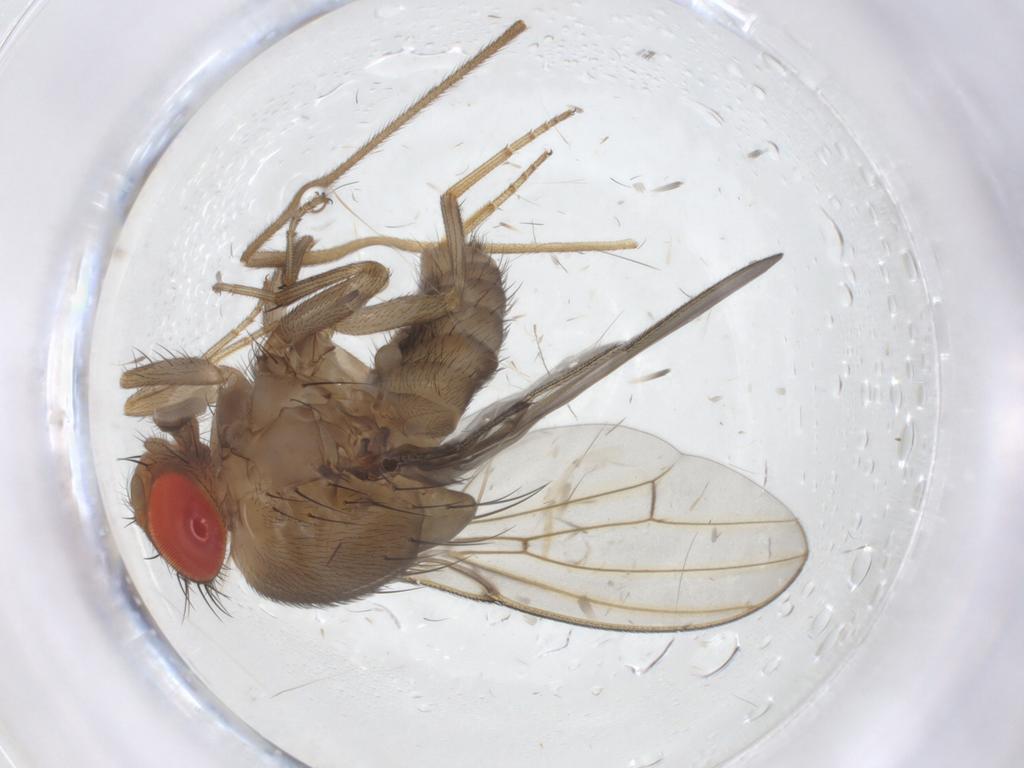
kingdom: Animalia
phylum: Arthropoda
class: Insecta
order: Diptera
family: Drosophilidae
